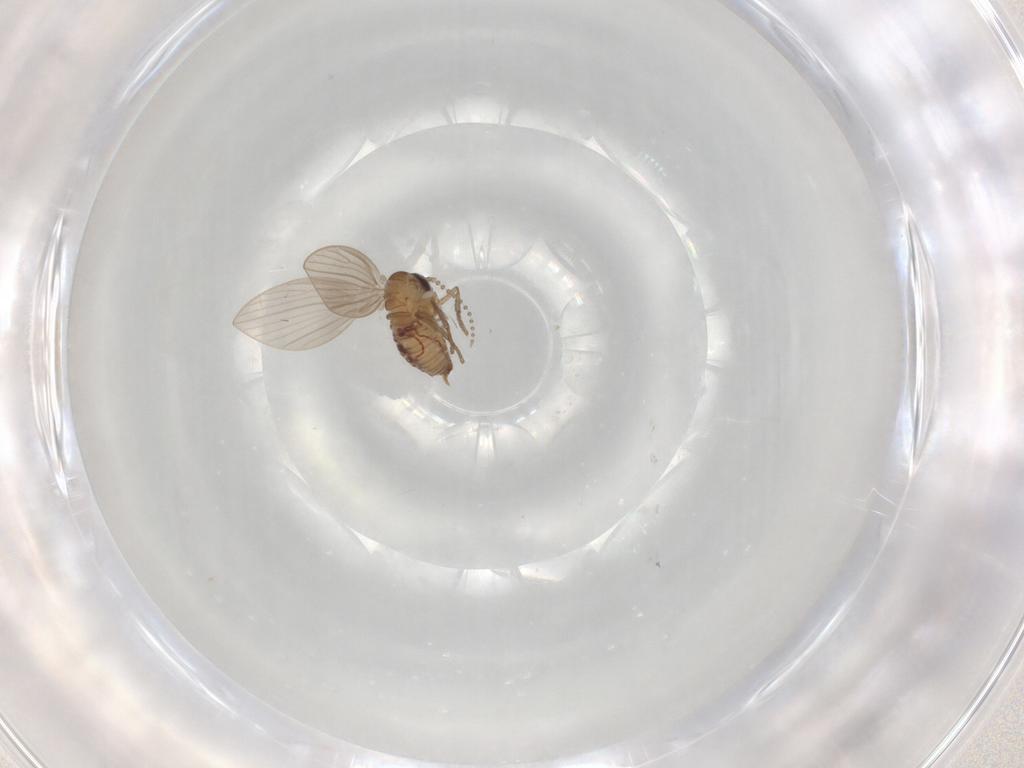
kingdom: Animalia
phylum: Arthropoda
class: Insecta
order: Diptera
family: Psychodidae
